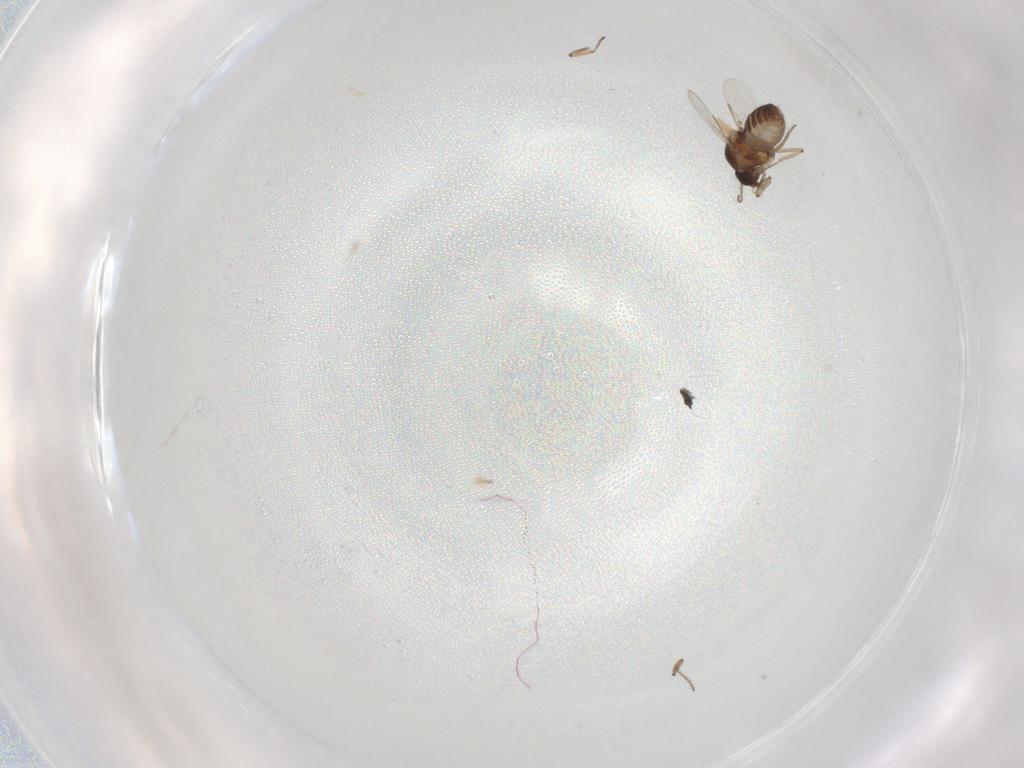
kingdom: Animalia
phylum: Arthropoda
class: Insecta
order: Diptera
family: Ceratopogonidae
